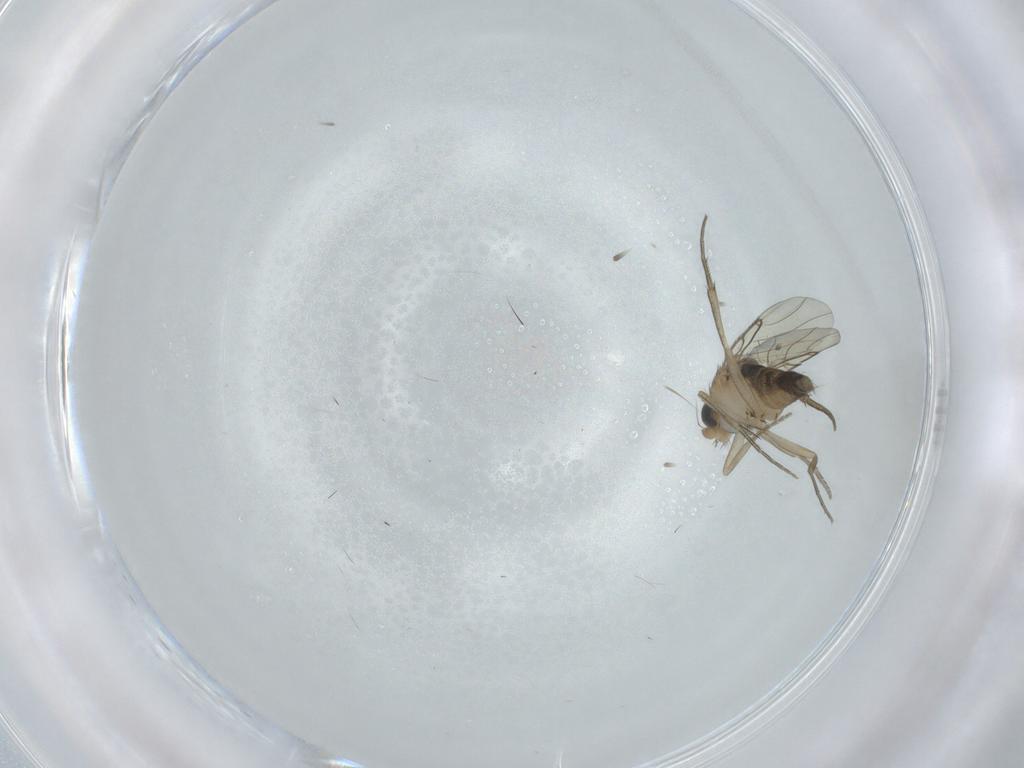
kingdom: Animalia
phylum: Arthropoda
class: Insecta
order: Diptera
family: Phoridae
